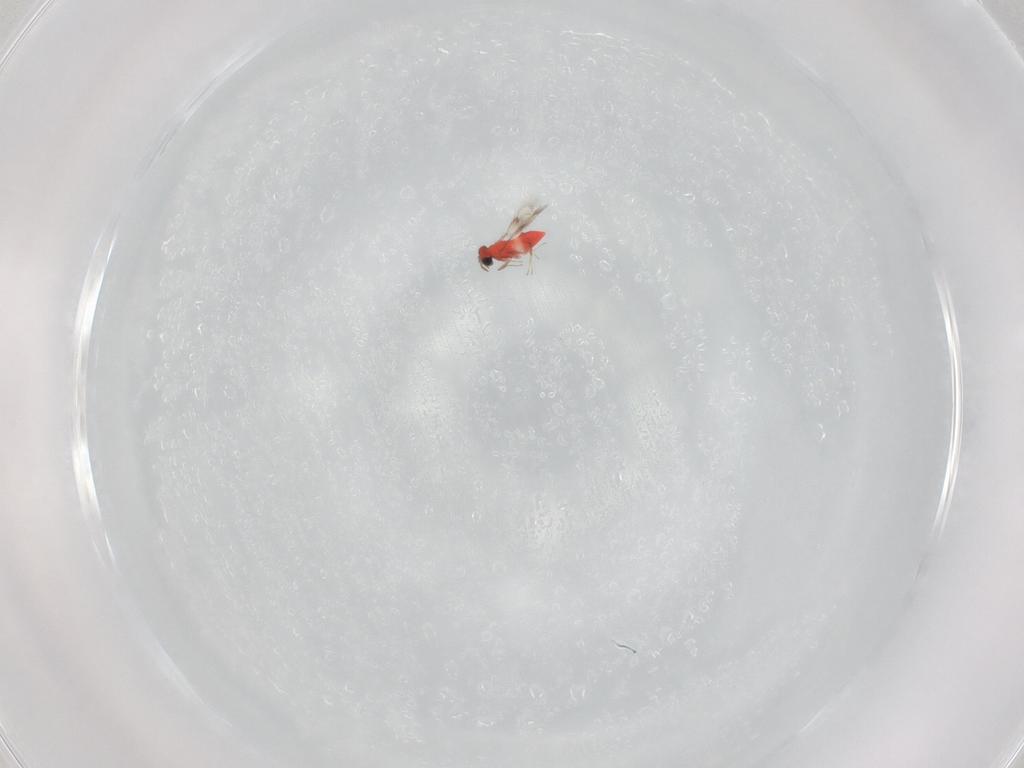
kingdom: Animalia
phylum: Arthropoda
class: Insecta
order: Hymenoptera
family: Trichogrammatidae
